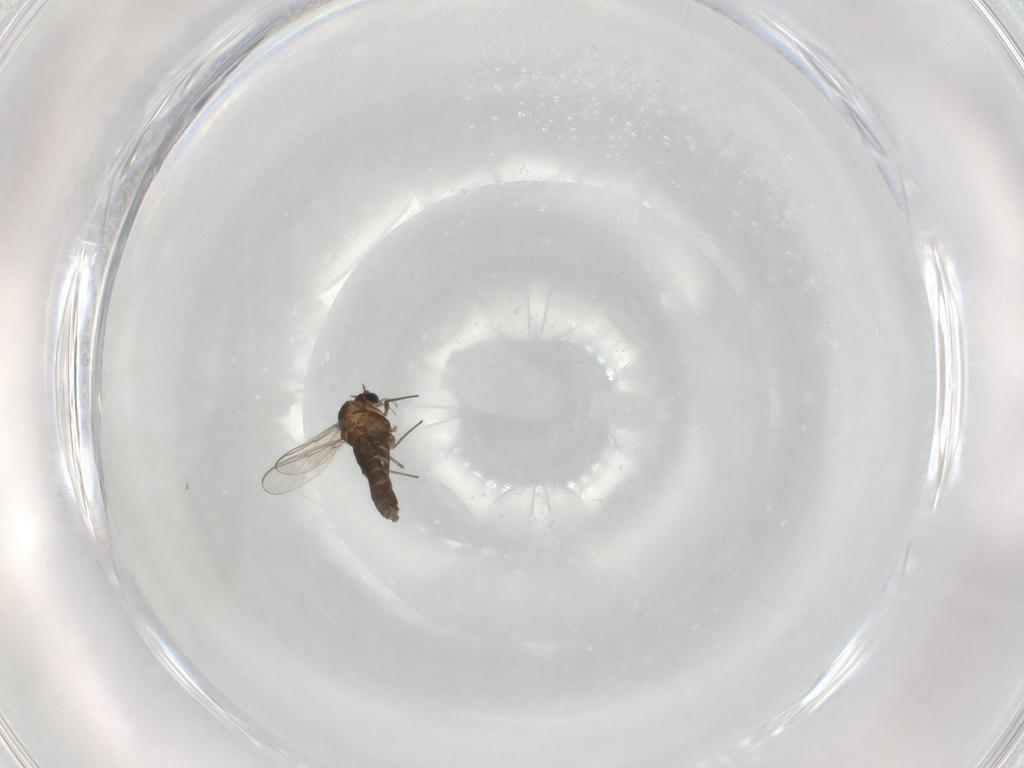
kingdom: Animalia
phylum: Arthropoda
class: Insecta
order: Diptera
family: Chironomidae
